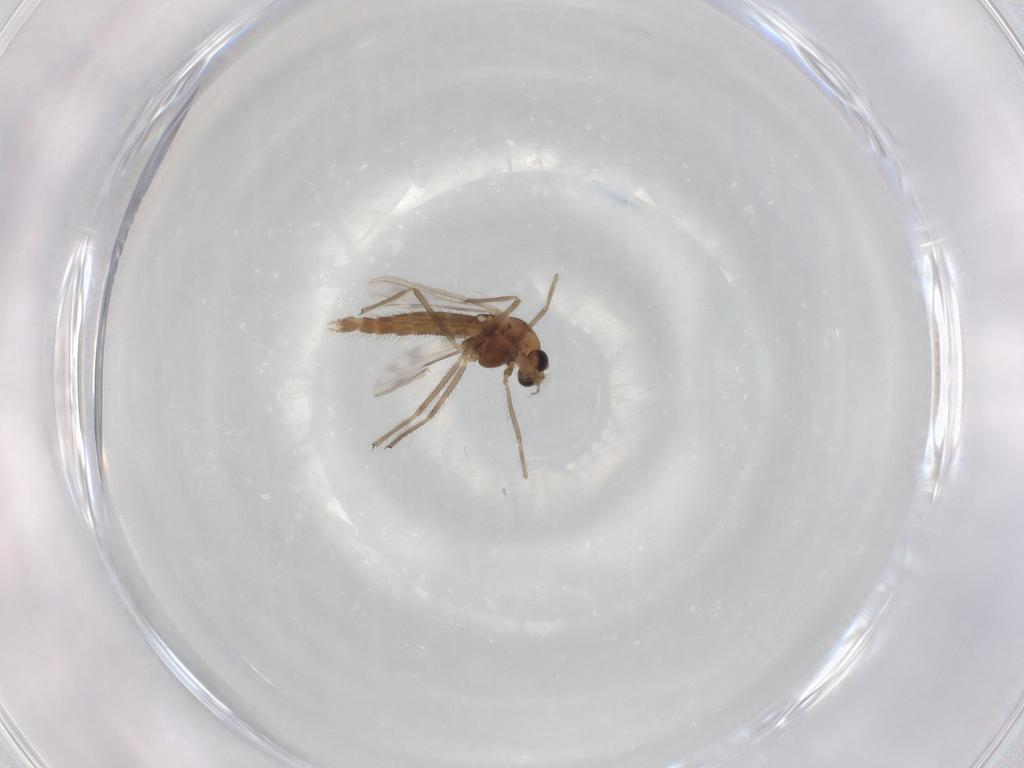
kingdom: Animalia
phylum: Arthropoda
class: Insecta
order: Diptera
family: Chironomidae
